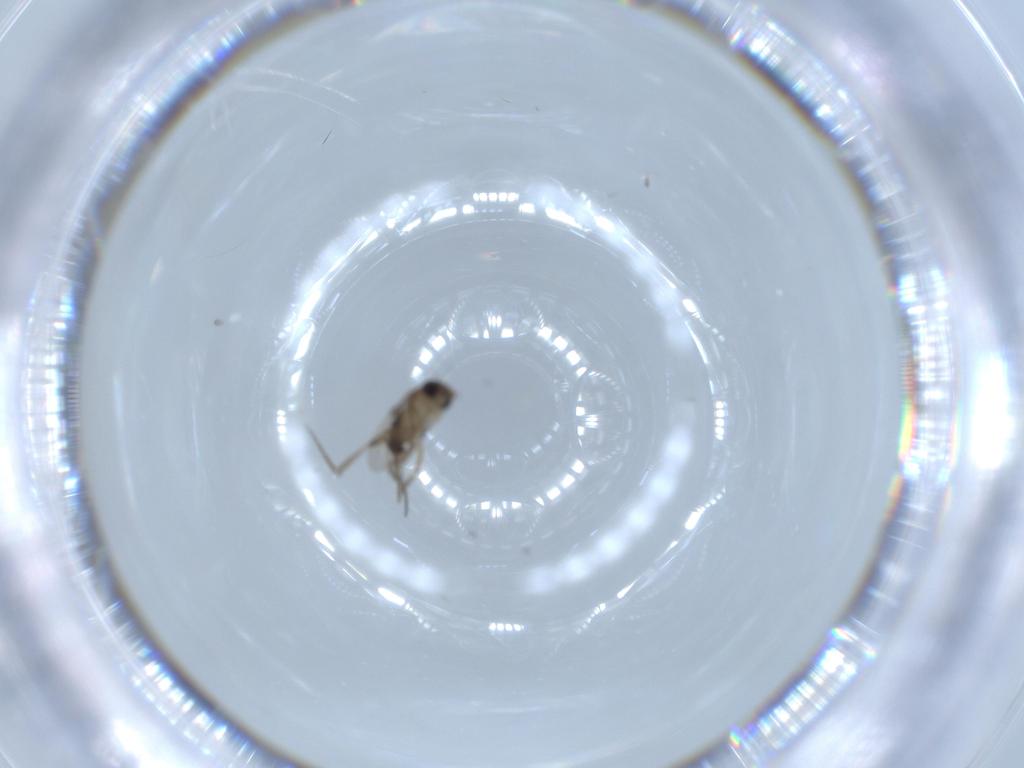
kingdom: Animalia
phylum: Arthropoda
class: Insecta
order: Diptera
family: Phoridae
